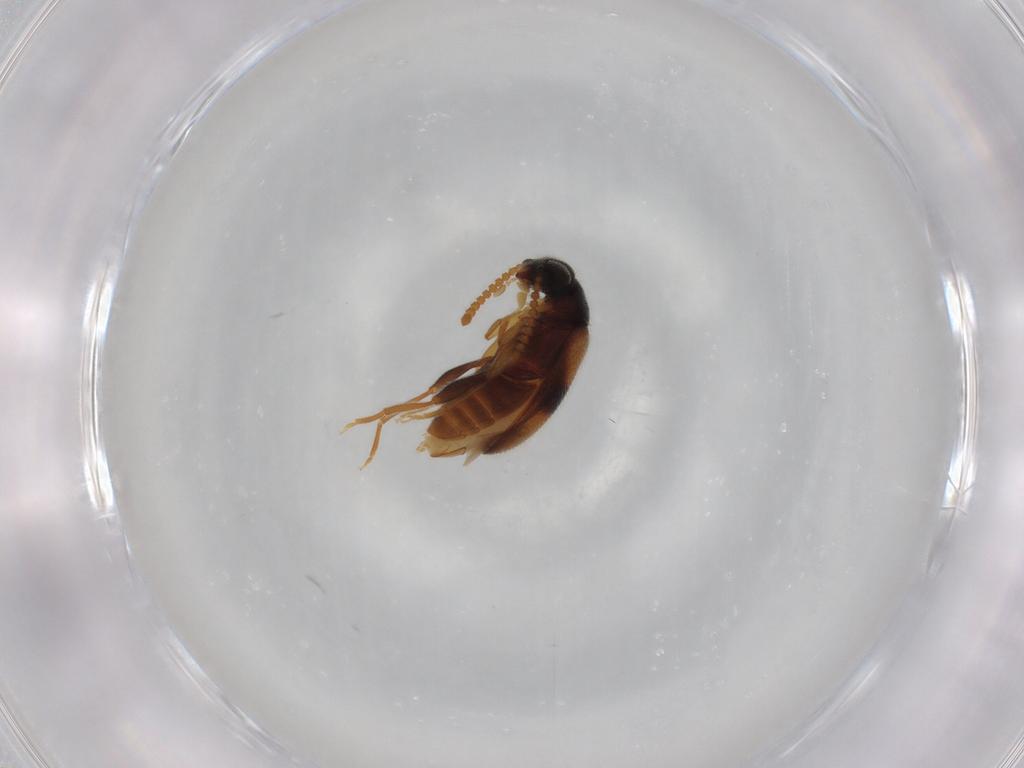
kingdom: Animalia
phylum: Arthropoda
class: Insecta
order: Coleoptera
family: Aderidae
